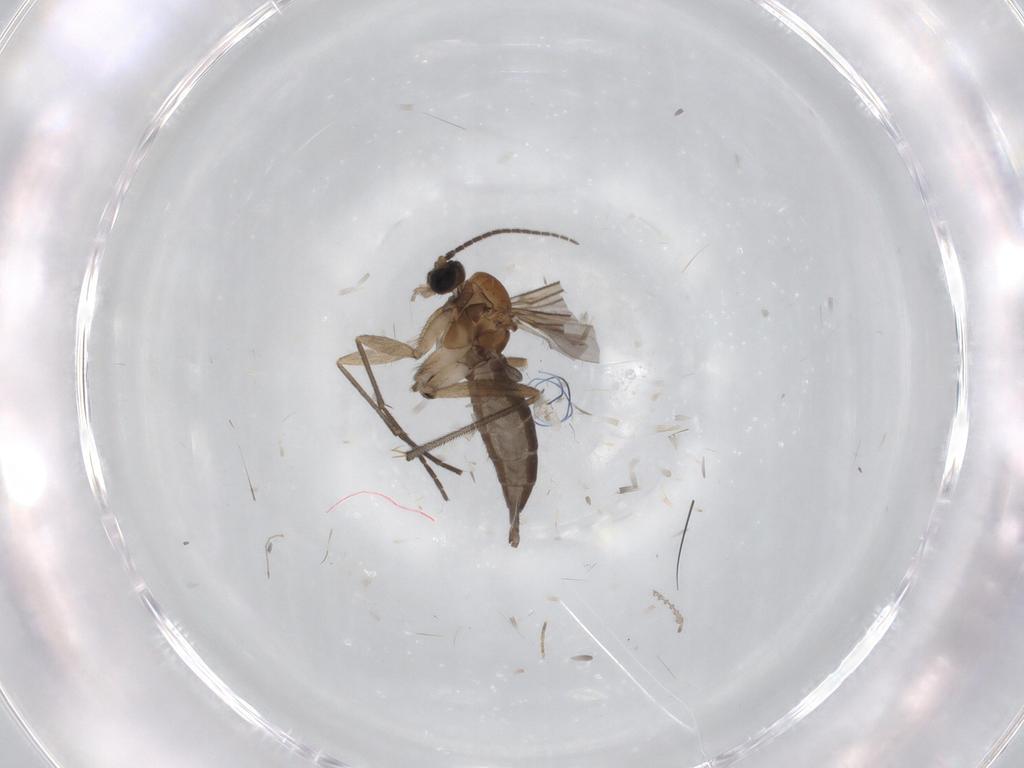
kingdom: Animalia
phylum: Arthropoda
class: Insecta
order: Diptera
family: Sciaridae
